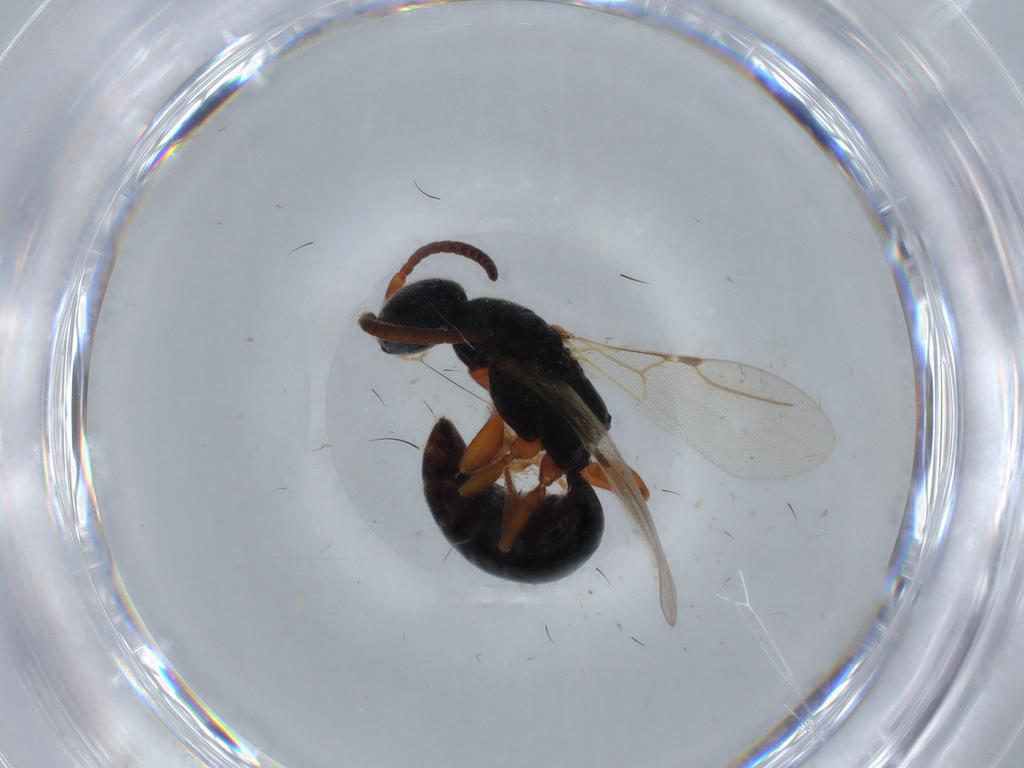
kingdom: Animalia
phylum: Arthropoda
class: Insecta
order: Hymenoptera
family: Bethylidae
